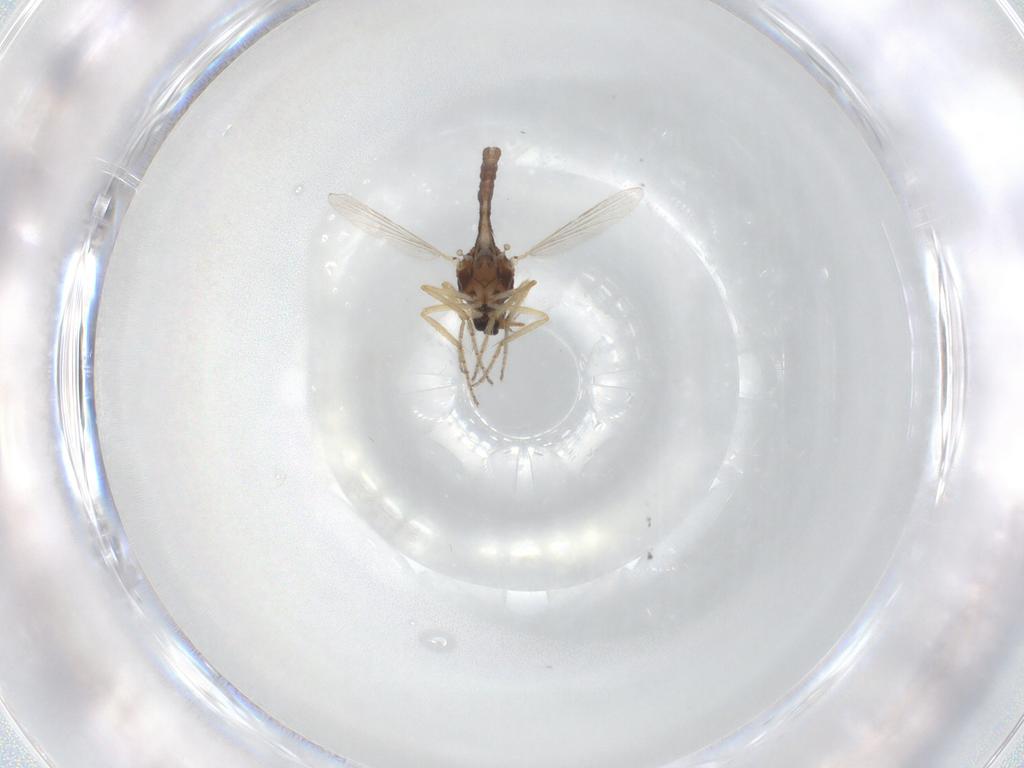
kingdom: Animalia
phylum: Arthropoda
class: Insecta
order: Diptera
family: Ceratopogonidae
